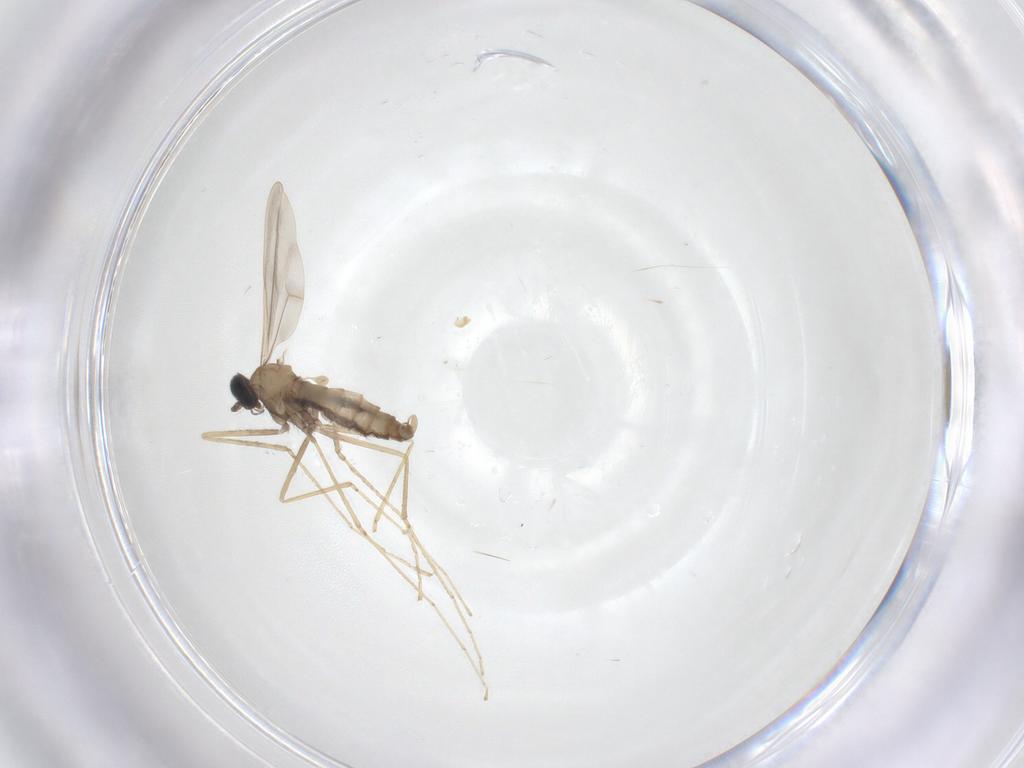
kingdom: Animalia
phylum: Arthropoda
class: Insecta
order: Diptera
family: Cecidomyiidae
